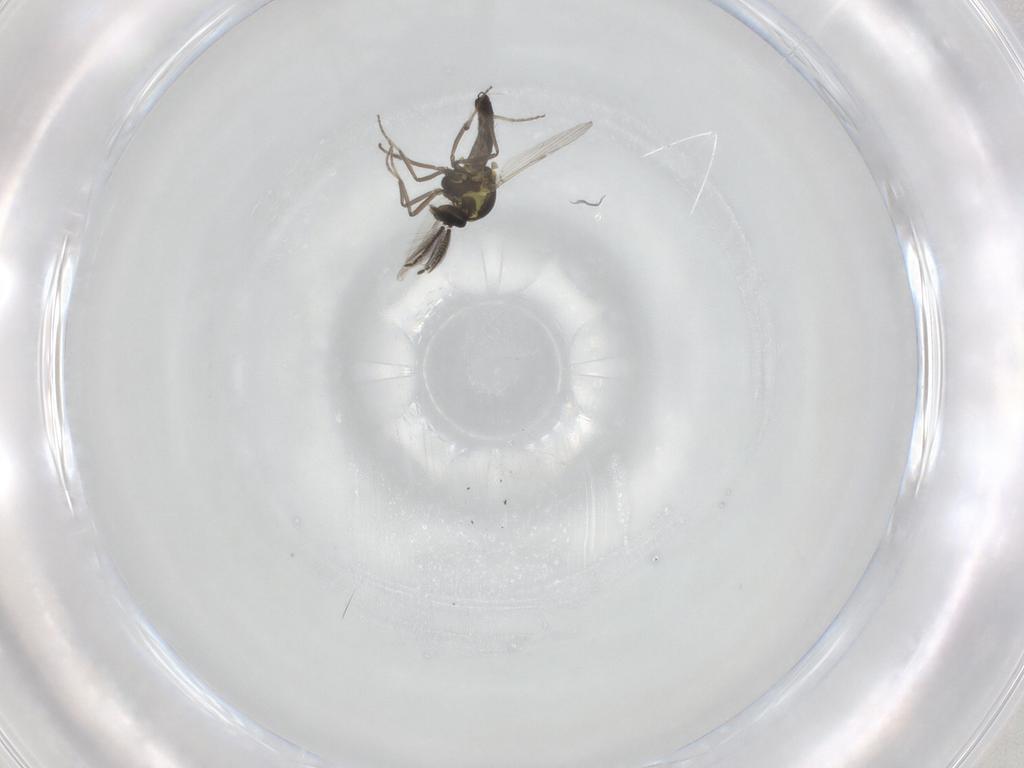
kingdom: Animalia
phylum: Arthropoda
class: Insecta
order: Diptera
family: Ceratopogonidae
